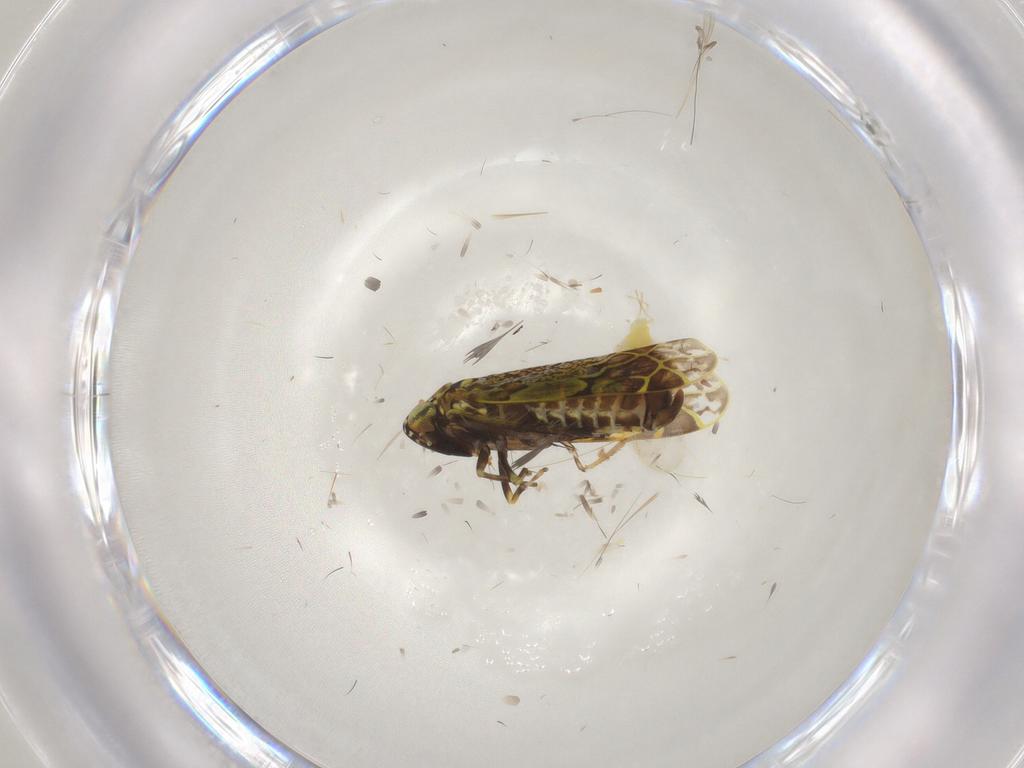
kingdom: Animalia
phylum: Arthropoda
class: Insecta
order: Hemiptera
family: Aleyrodidae
